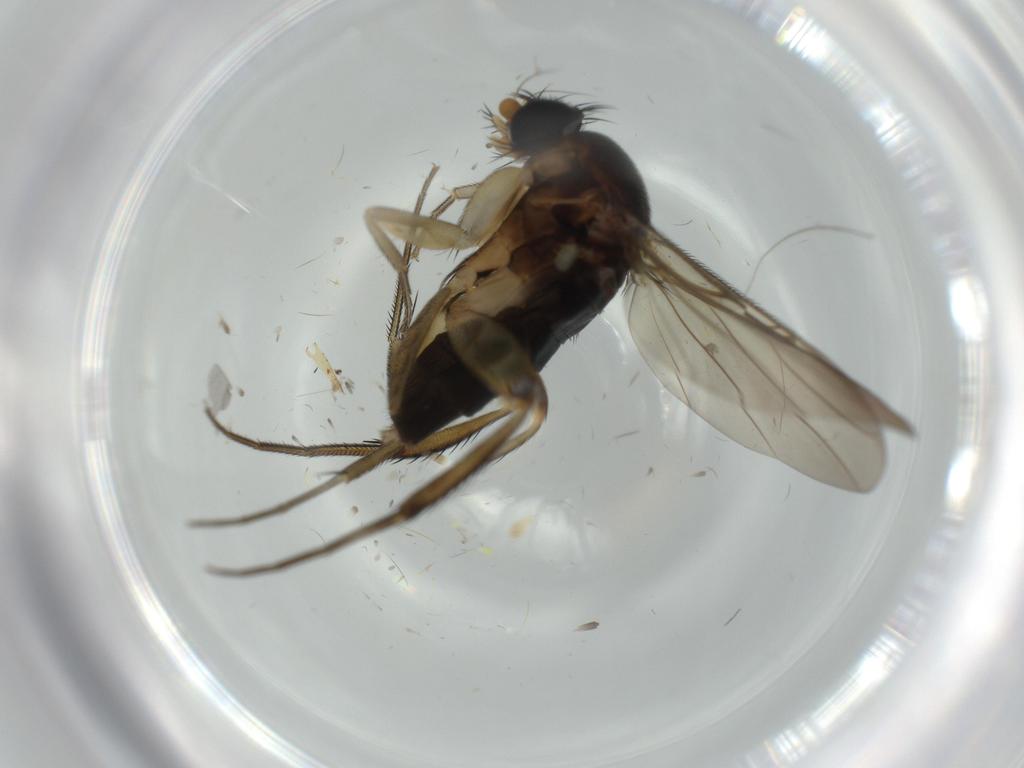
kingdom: Animalia
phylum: Arthropoda
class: Insecta
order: Diptera
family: Phoridae
